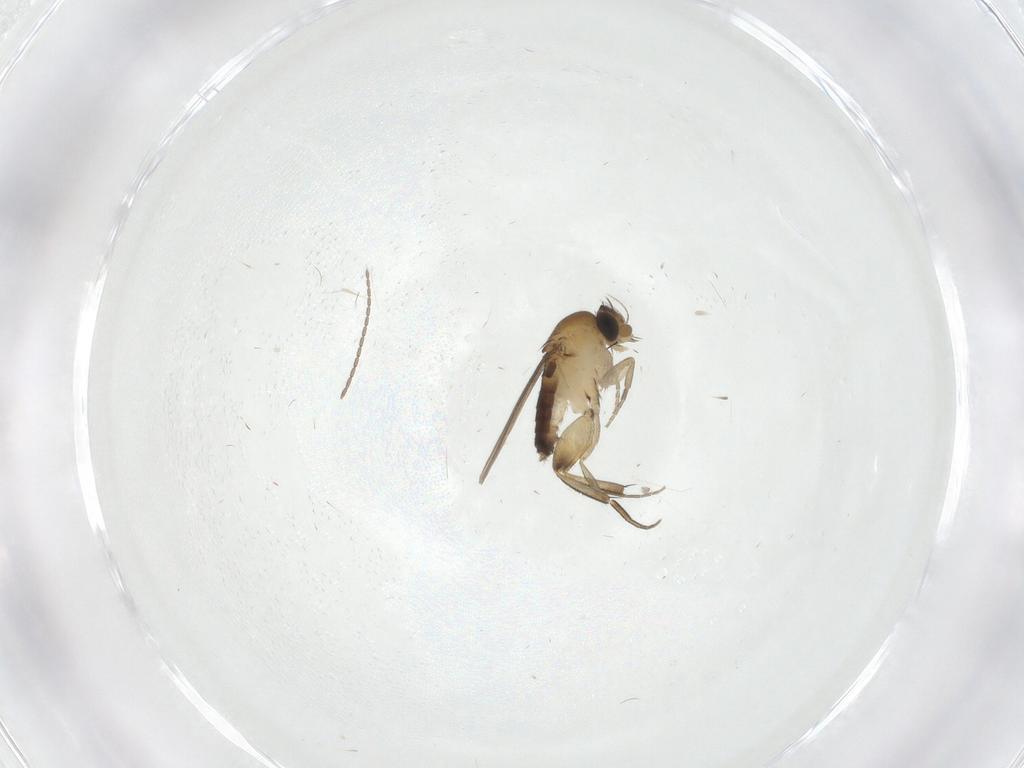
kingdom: Animalia
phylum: Arthropoda
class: Insecta
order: Diptera
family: Phoridae
